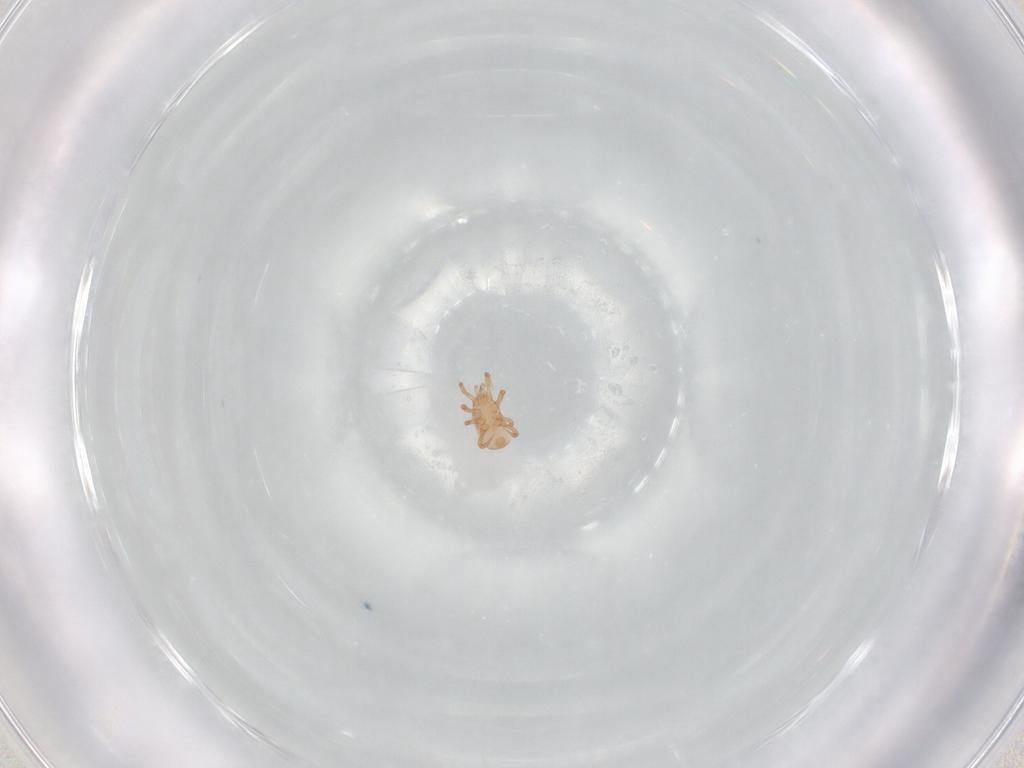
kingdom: Animalia
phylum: Arthropoda
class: Arachnida
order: Mesostigmata
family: Ascidae
